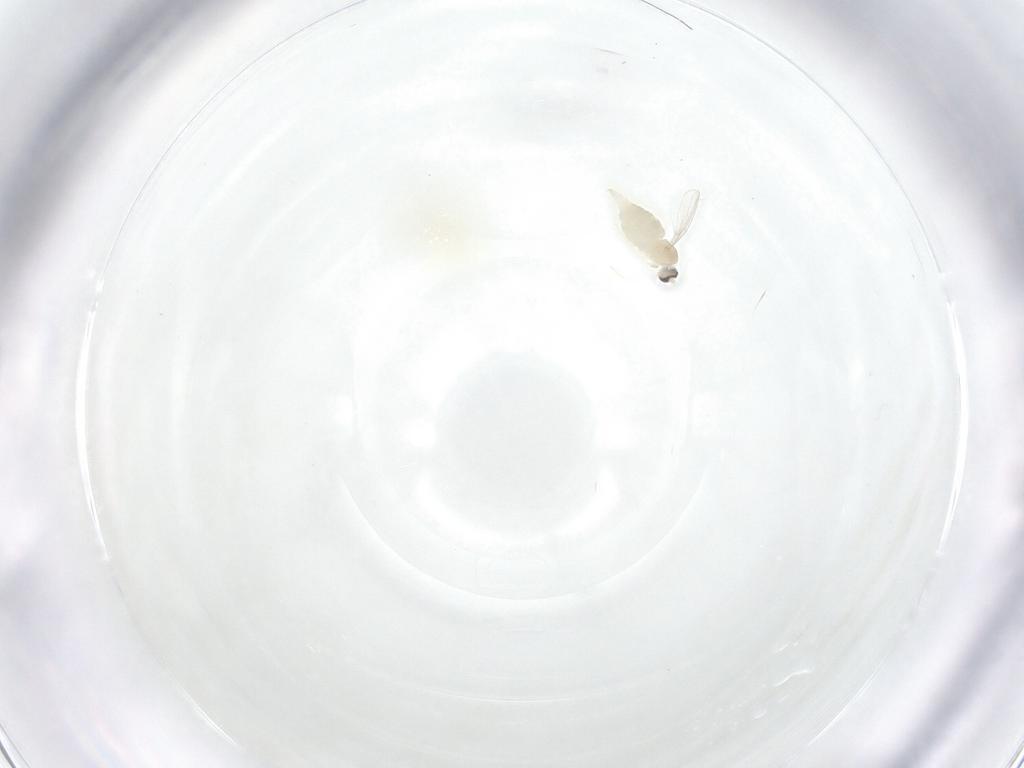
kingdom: Animalia
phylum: Arthropoda
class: Insecta
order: Diptera
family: Cecidomyiidae
